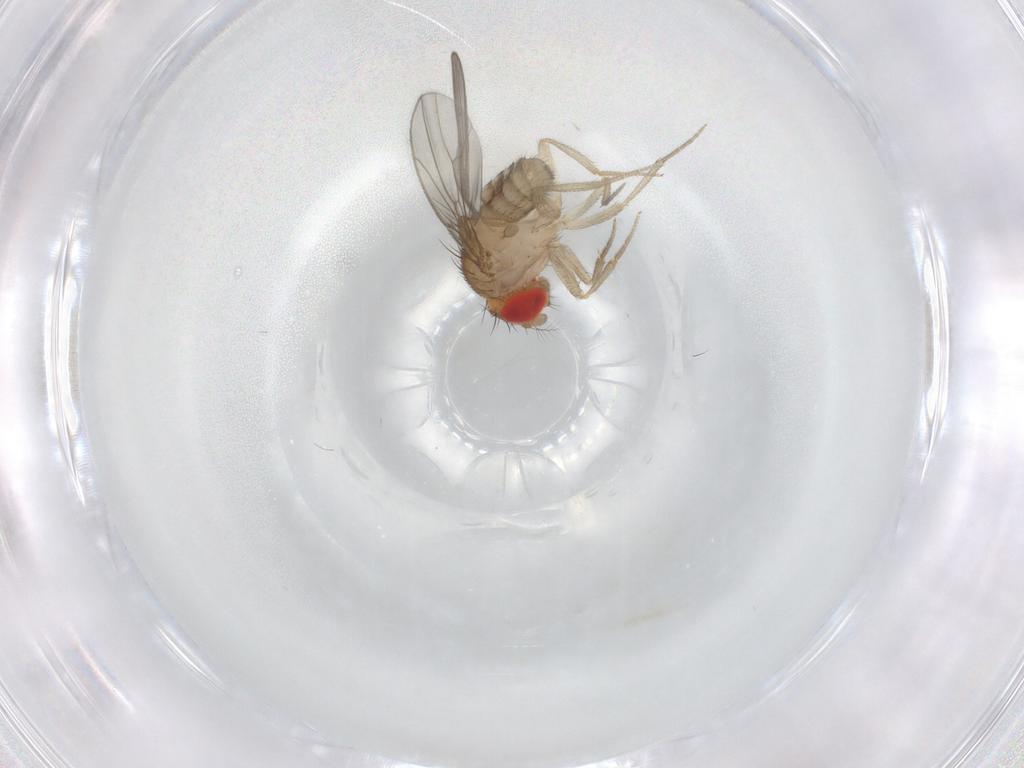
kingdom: Animalia
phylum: Arthropoda
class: Insecta
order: Diptera
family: Drosophilidae
